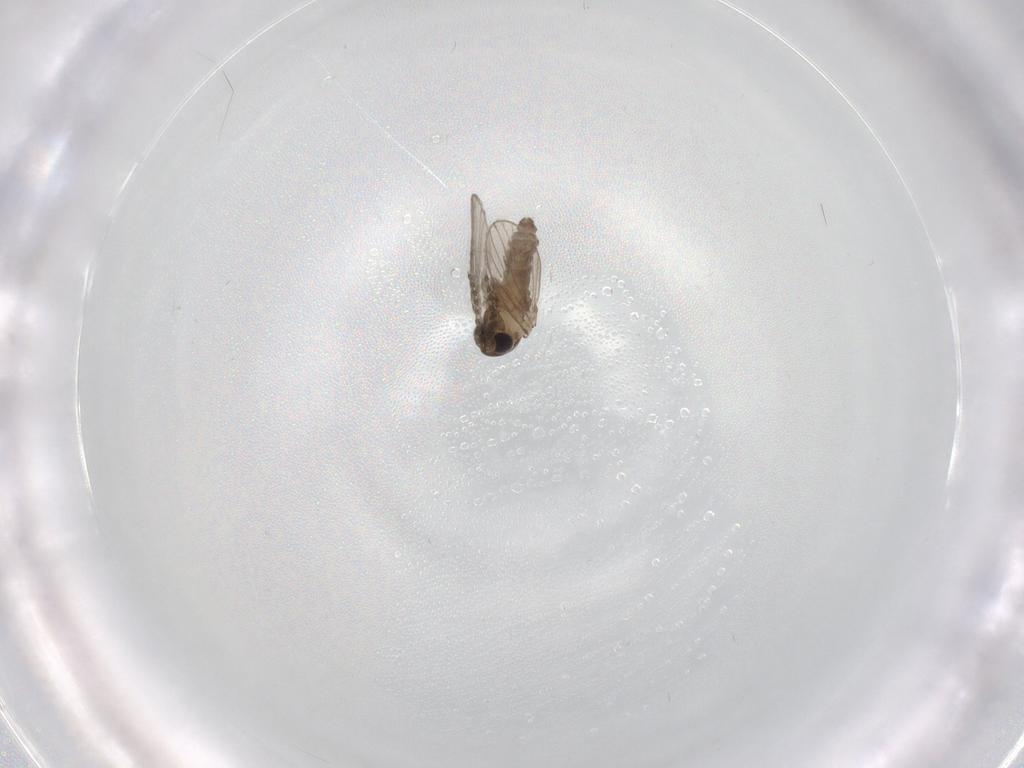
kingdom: Animalia
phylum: Arthropoda
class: Insecta
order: Diptera
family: Psychodidae
